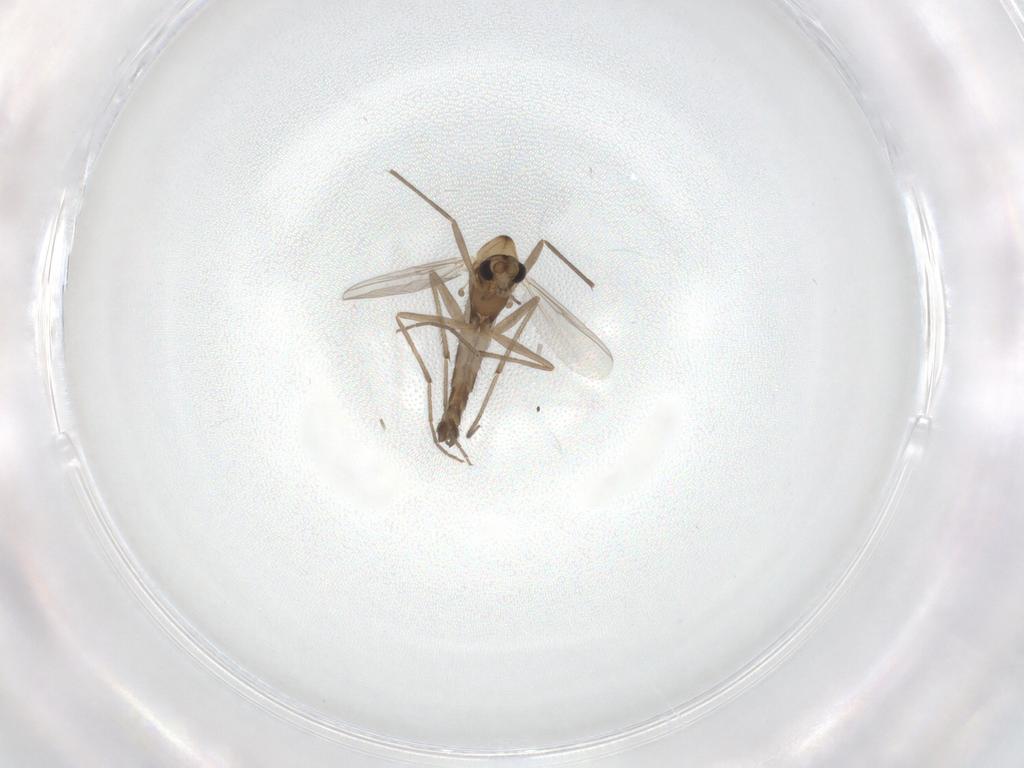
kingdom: Animalia
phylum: Arthropoda
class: Insecta
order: Diptera
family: Chironomidae
